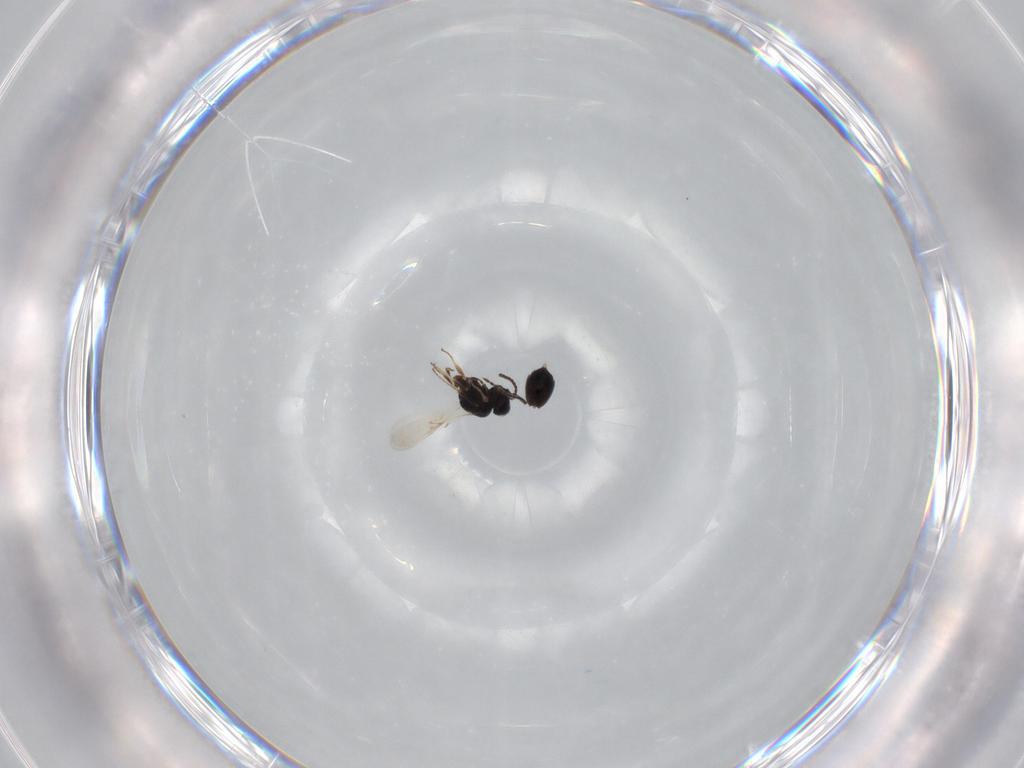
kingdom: Animalia
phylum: Arthropoda
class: Insecta
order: Hymenoptera
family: Scelionidae
